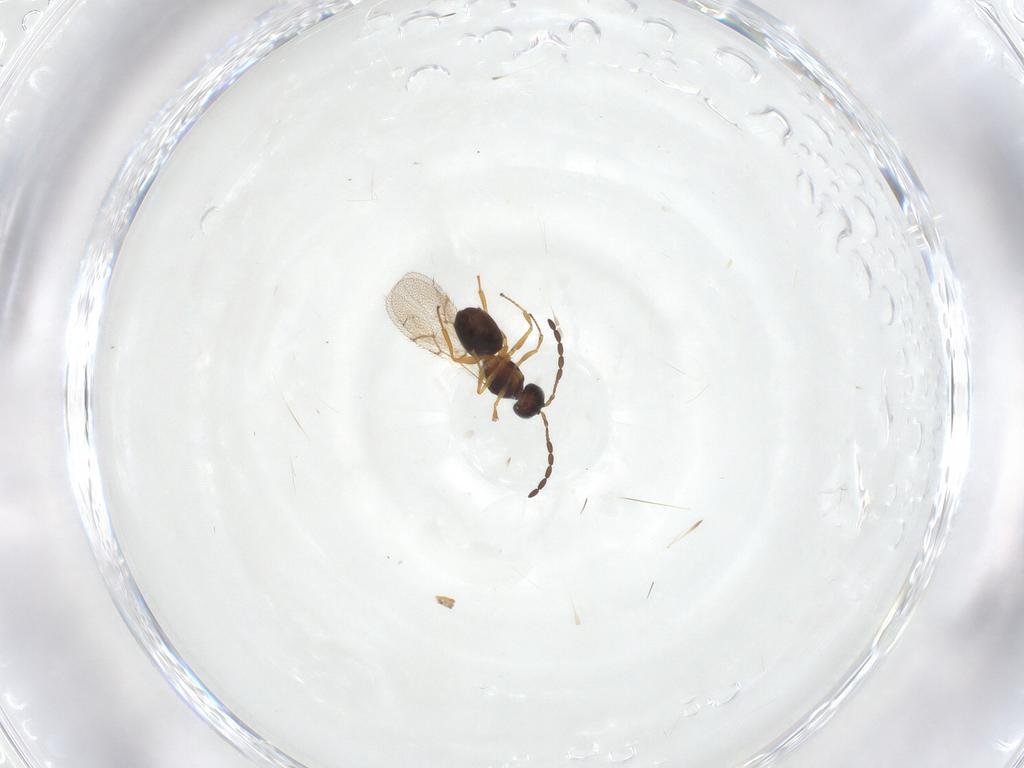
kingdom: Animalia
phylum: Arthropoda
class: Insecta
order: Hymenoptera
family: Figitidae
